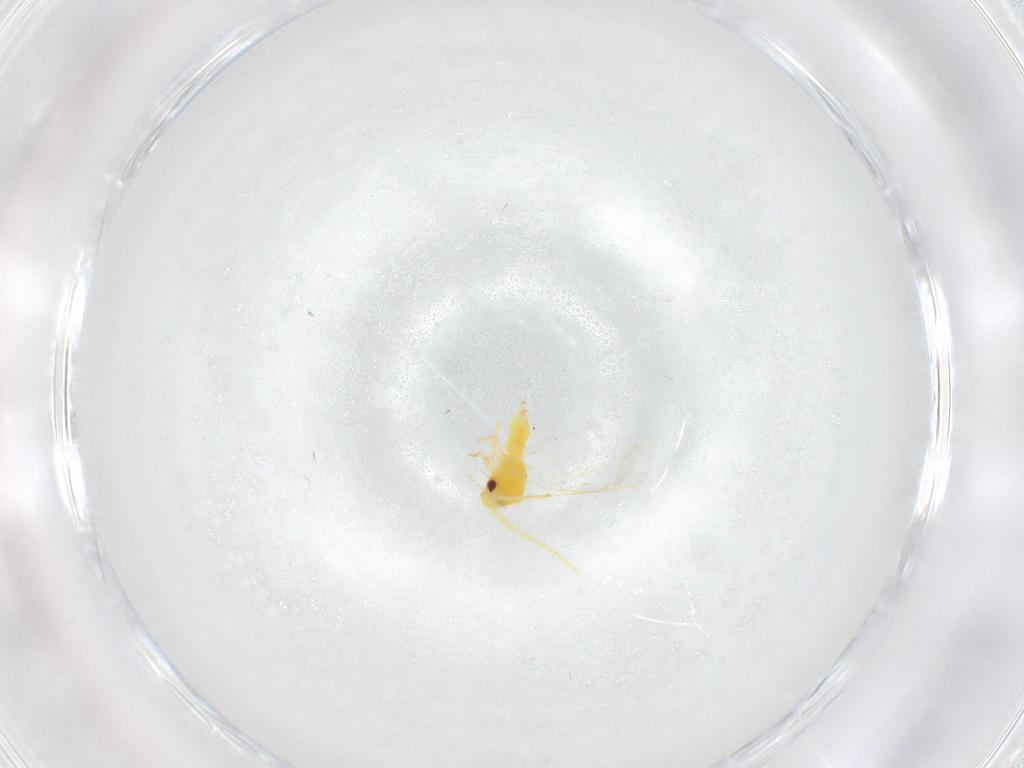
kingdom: Animalia
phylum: Arthropoda
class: Insecta
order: Hemiptera
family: Aleyrodidae
